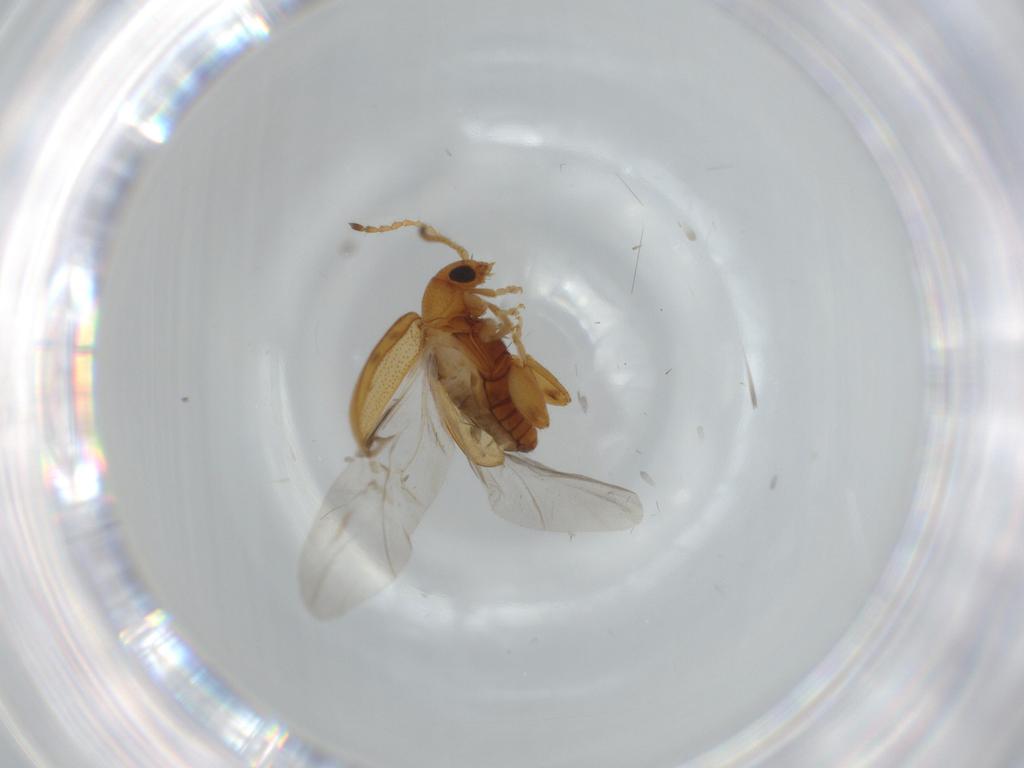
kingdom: Animalia
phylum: Arthropoda
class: Insecta
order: Coleoptera
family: Chrysomelidae
